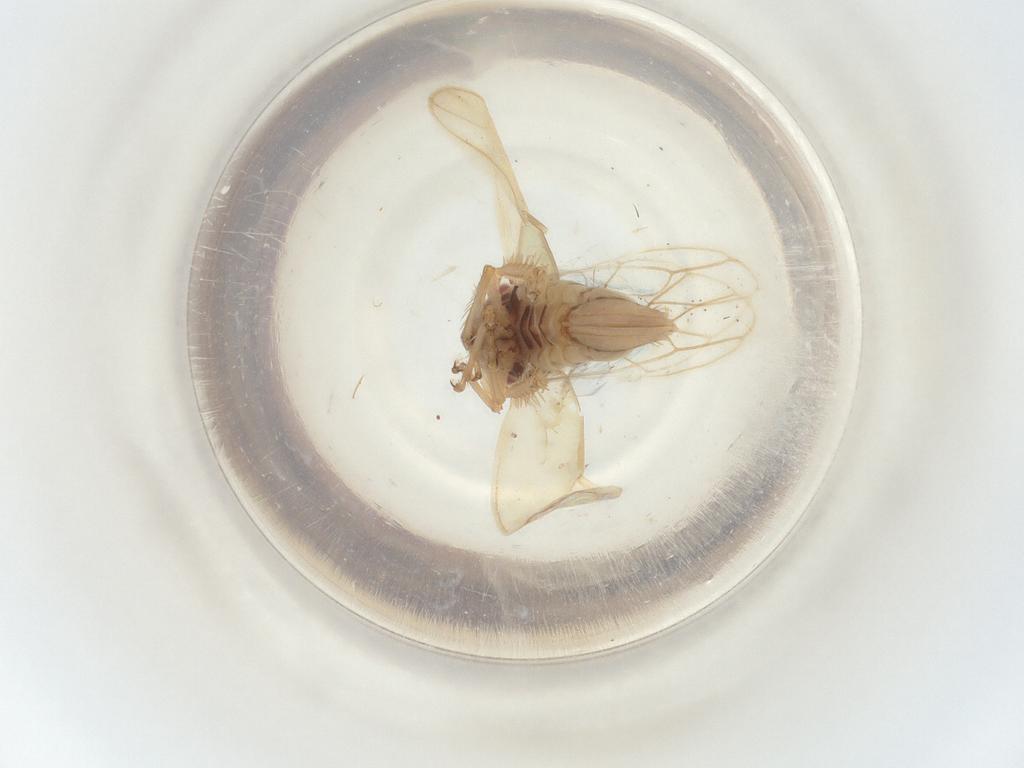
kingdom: Animalia
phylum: Arthropoda
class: Insecta
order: Hemiptera
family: Cicadellidae
